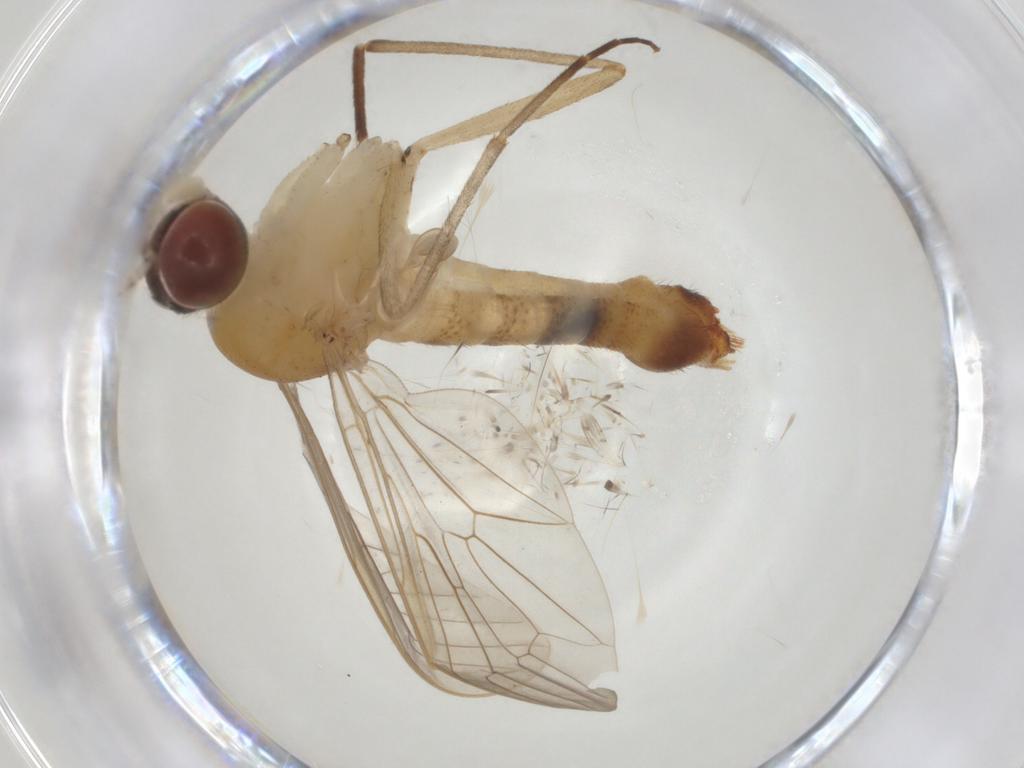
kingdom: Animalia
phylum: Arthropoda
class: Insecta
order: Diptera
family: Apsilocephalidae
